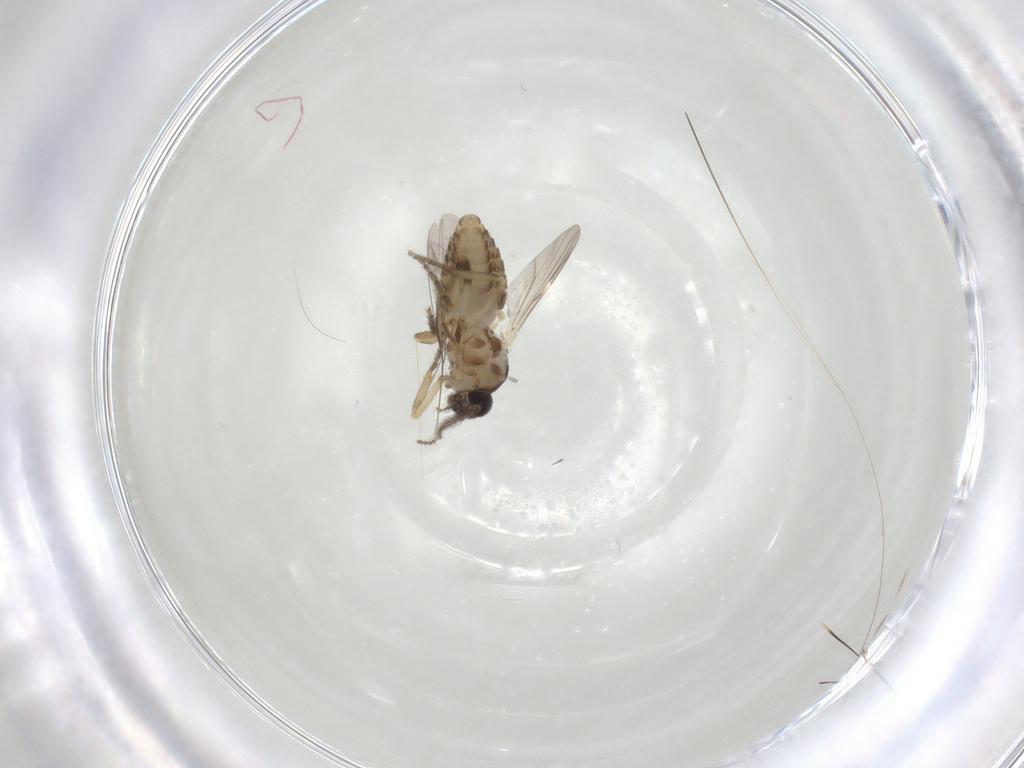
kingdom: Animalia
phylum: Arthropoda
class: Insecta
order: Diptera
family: Ceratopogonidae
